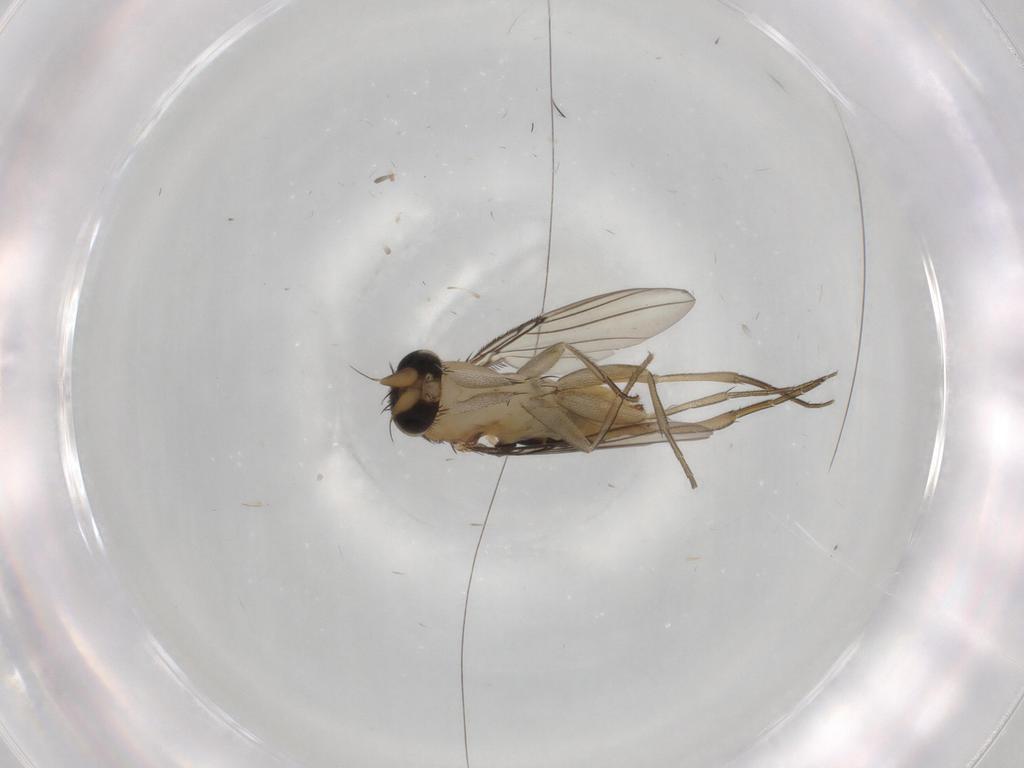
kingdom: Animalia
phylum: Arthropoda
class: Insecta
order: Diptera
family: Phoridae
